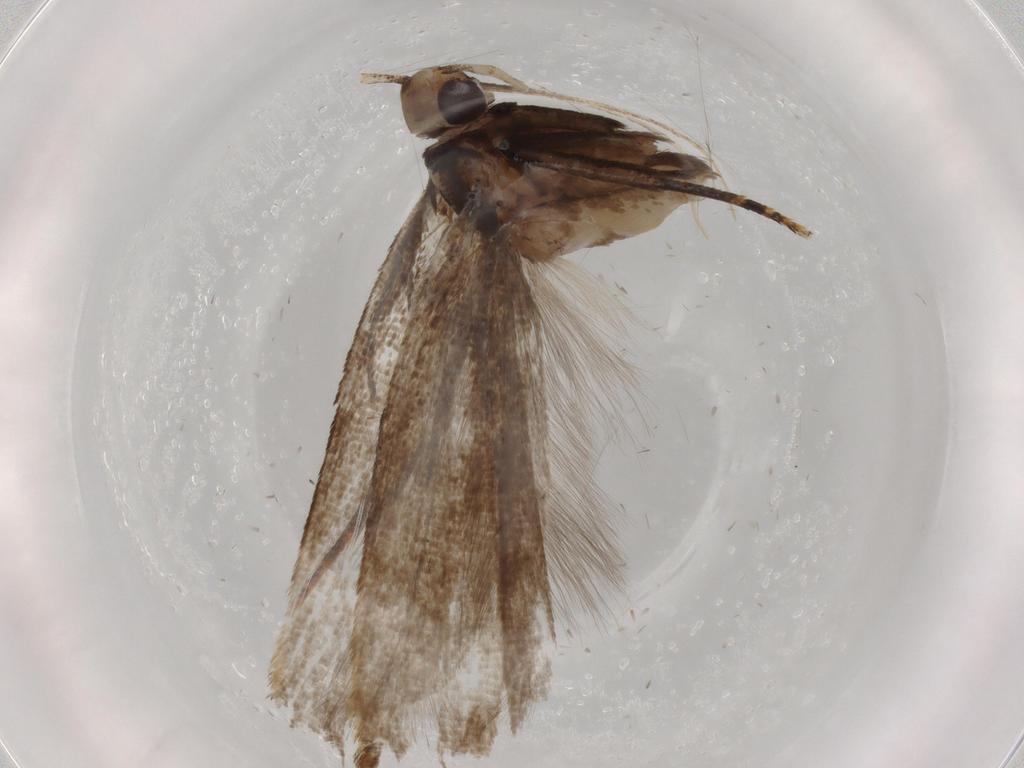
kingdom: Animalia
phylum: Arthropoda
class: Insecta
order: Lepidoptera
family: Gelechiidae
